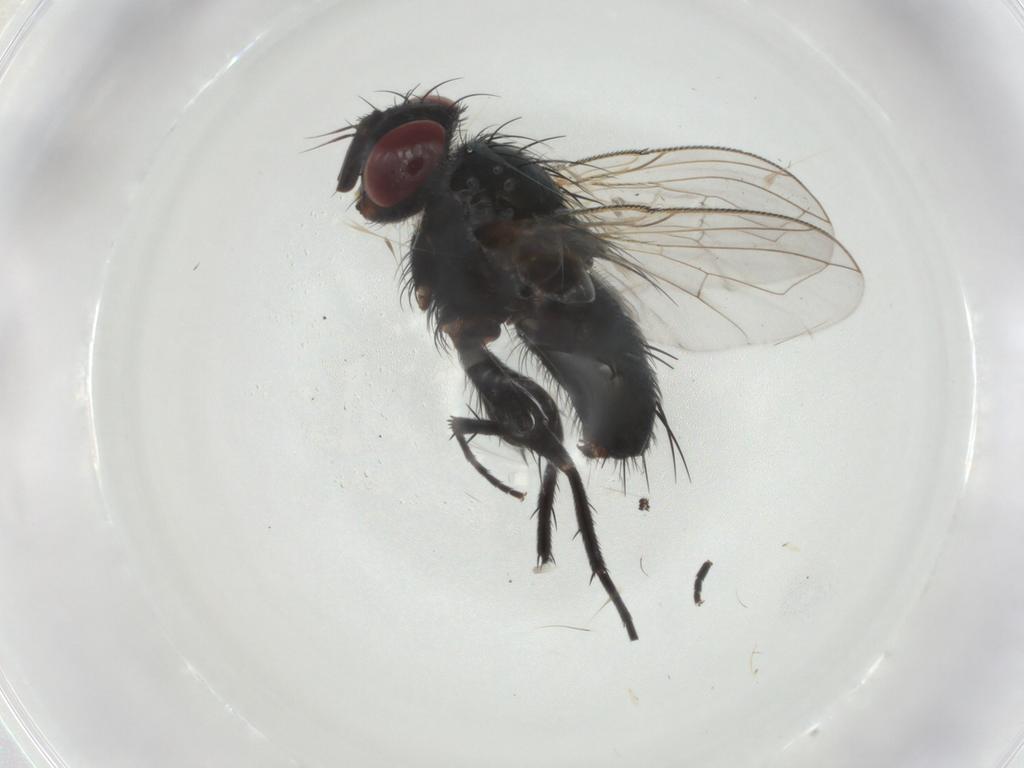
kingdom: Animalia
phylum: Arthropoda
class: Insecta
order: Diptera
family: Tachinidae
